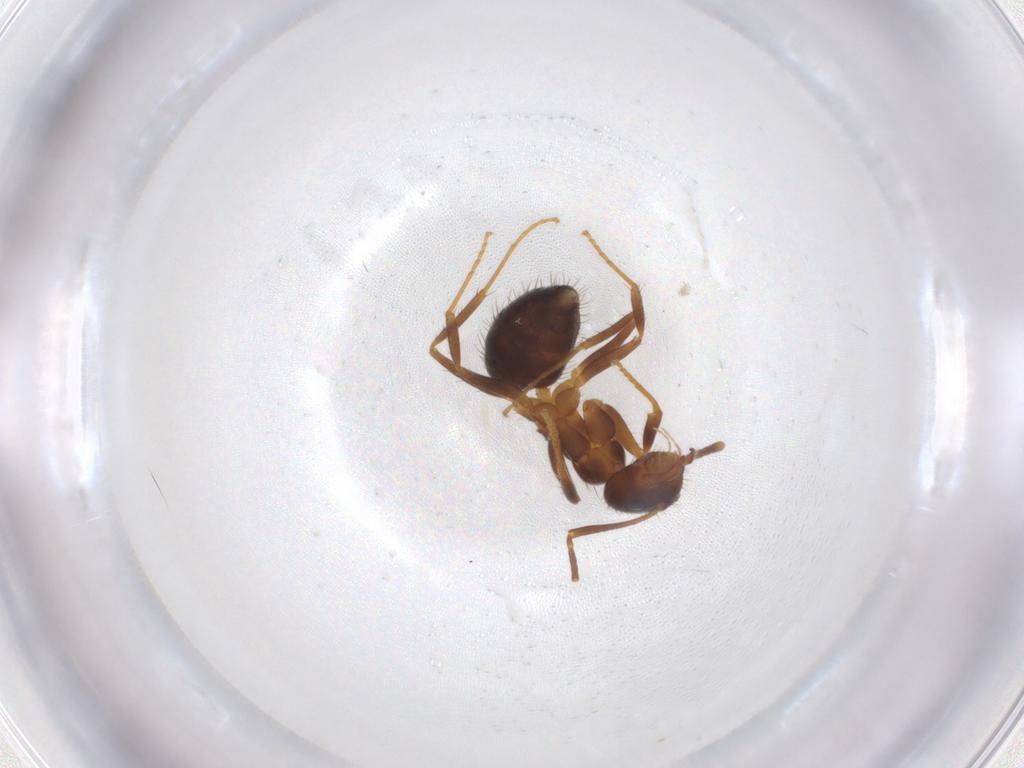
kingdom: Animalia
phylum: Arthropoda
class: Insecta
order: Hymenoptera
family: Formicidae
